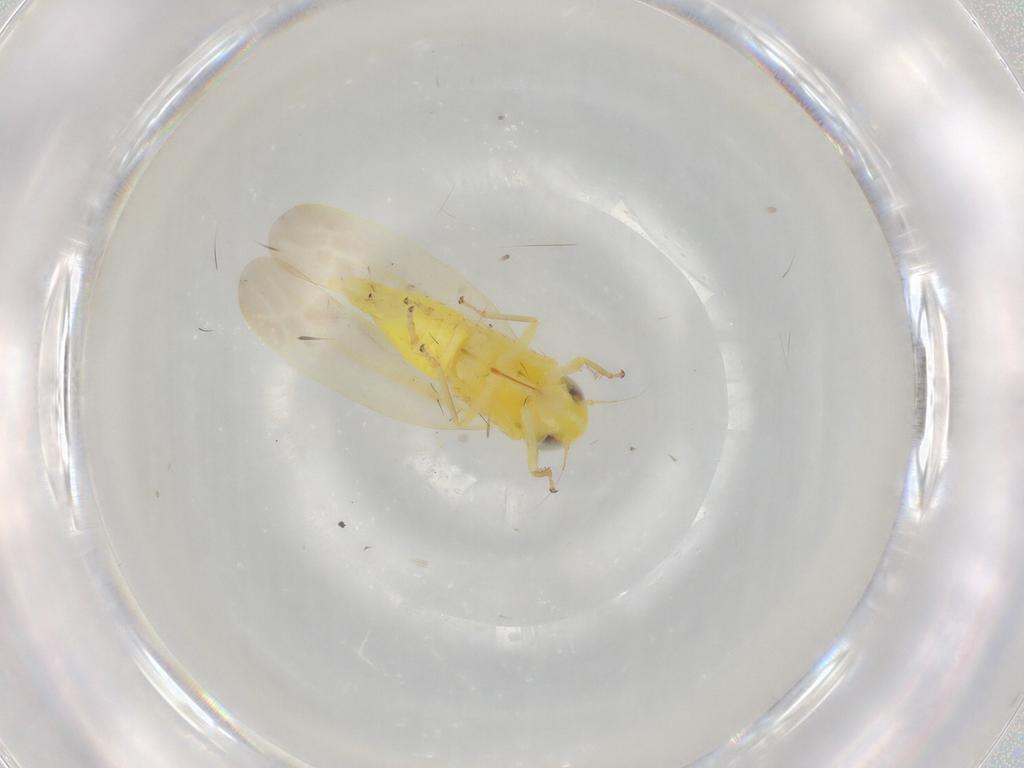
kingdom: Animalia
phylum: Arthropoda
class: Insecta
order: Hemiptera
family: Cicadellidae
